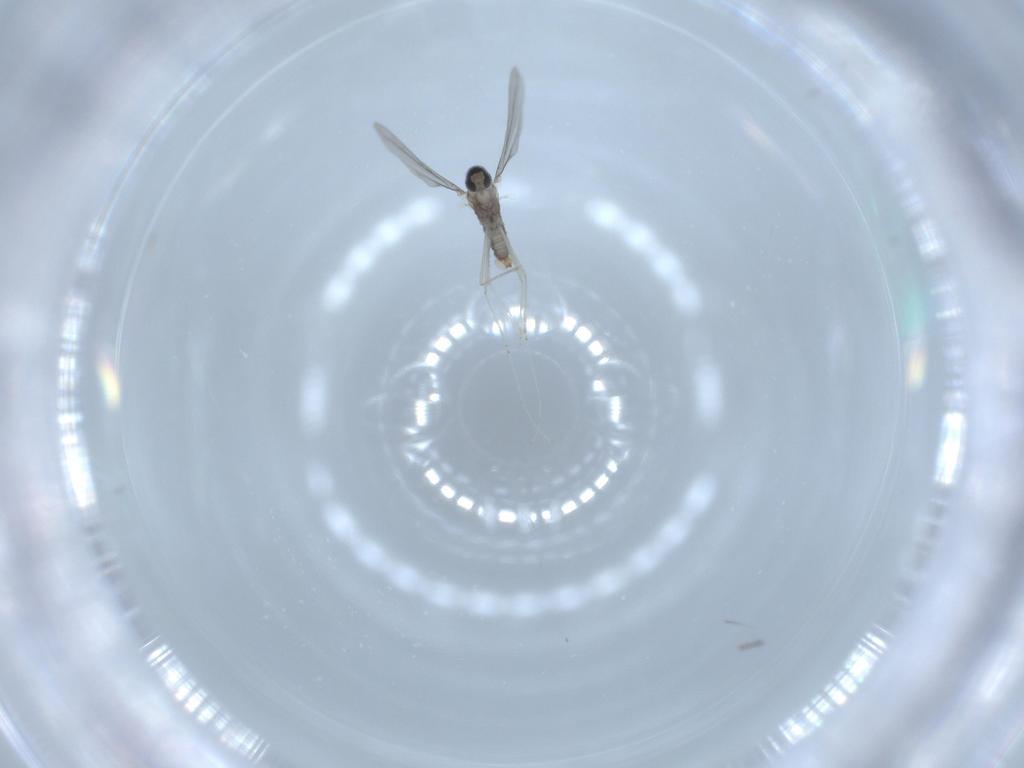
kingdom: Animalia
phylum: Arthropoda
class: Insecta
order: Diptera
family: Cecidomyiidae
